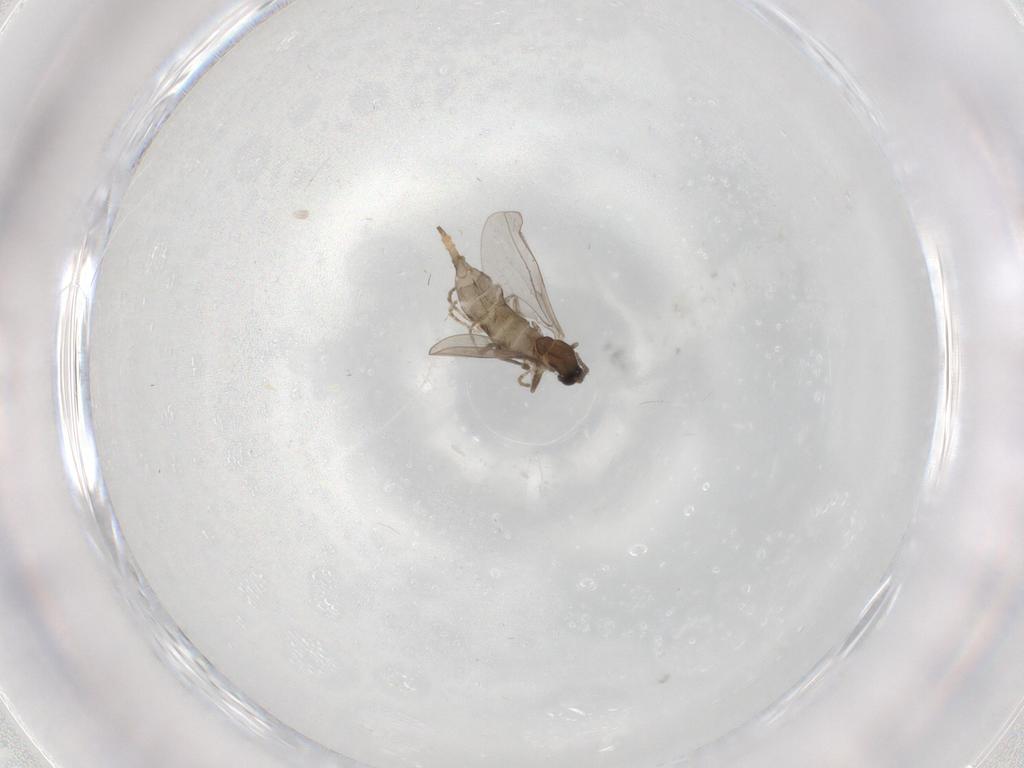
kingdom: Animalia
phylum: Arthropoda
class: Insecta
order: Diptera
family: Cecidomyiidae
